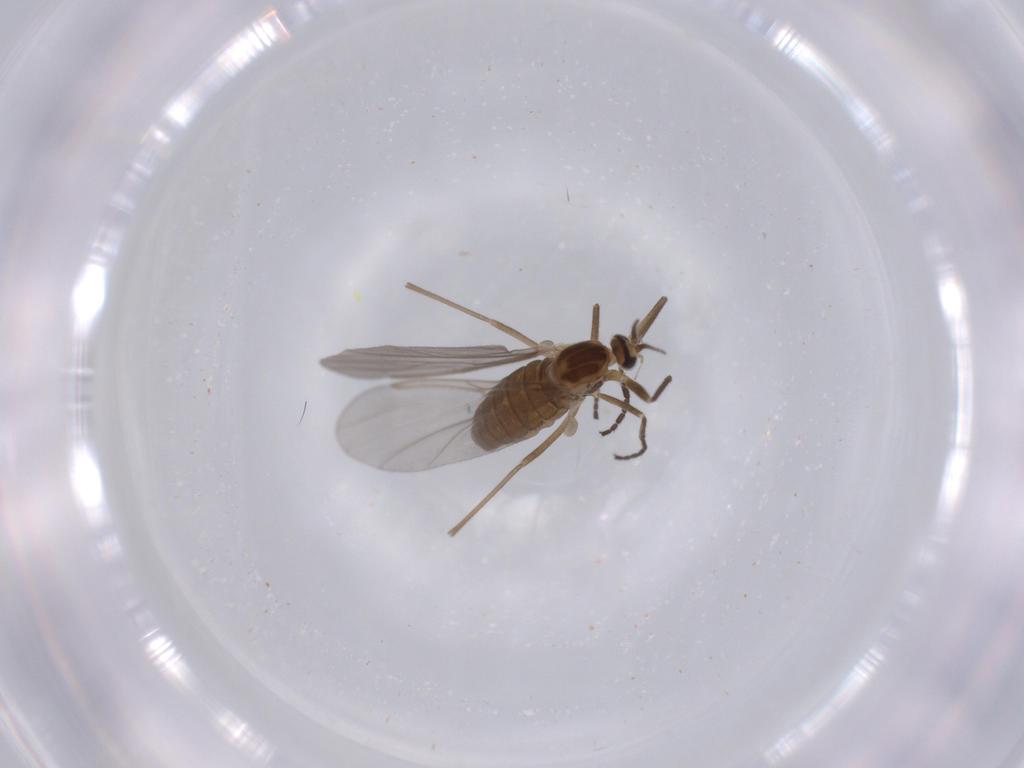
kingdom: Animalia
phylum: Arthropoda
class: Insecta
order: Diptera
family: Cecidomyiidae
